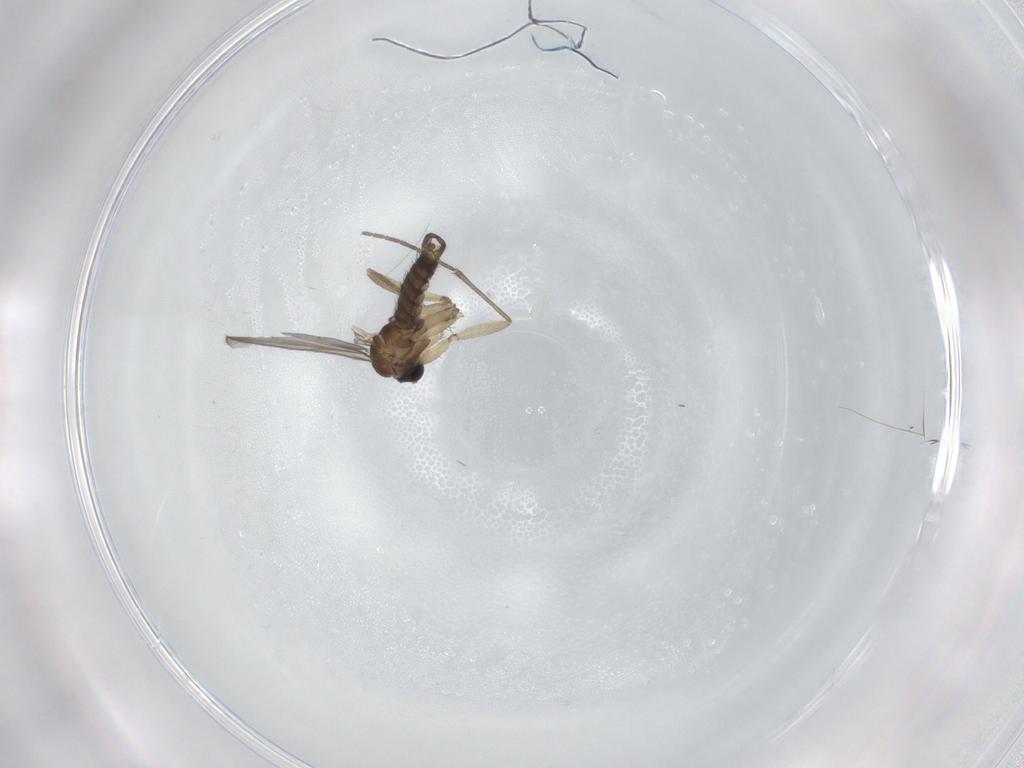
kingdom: Animalia
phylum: Arthropoda
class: Insecta
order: Diptera
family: Sciaridae
